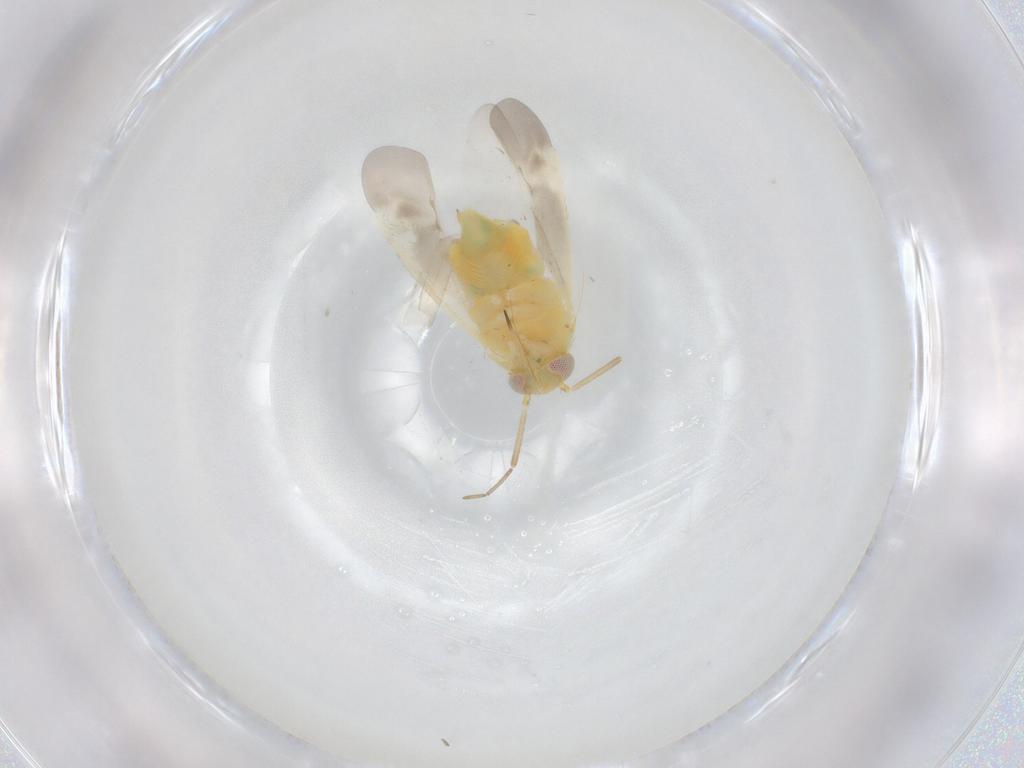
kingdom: Animalia
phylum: Arthropoda
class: Insecta
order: Hemiptera
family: Miridae
